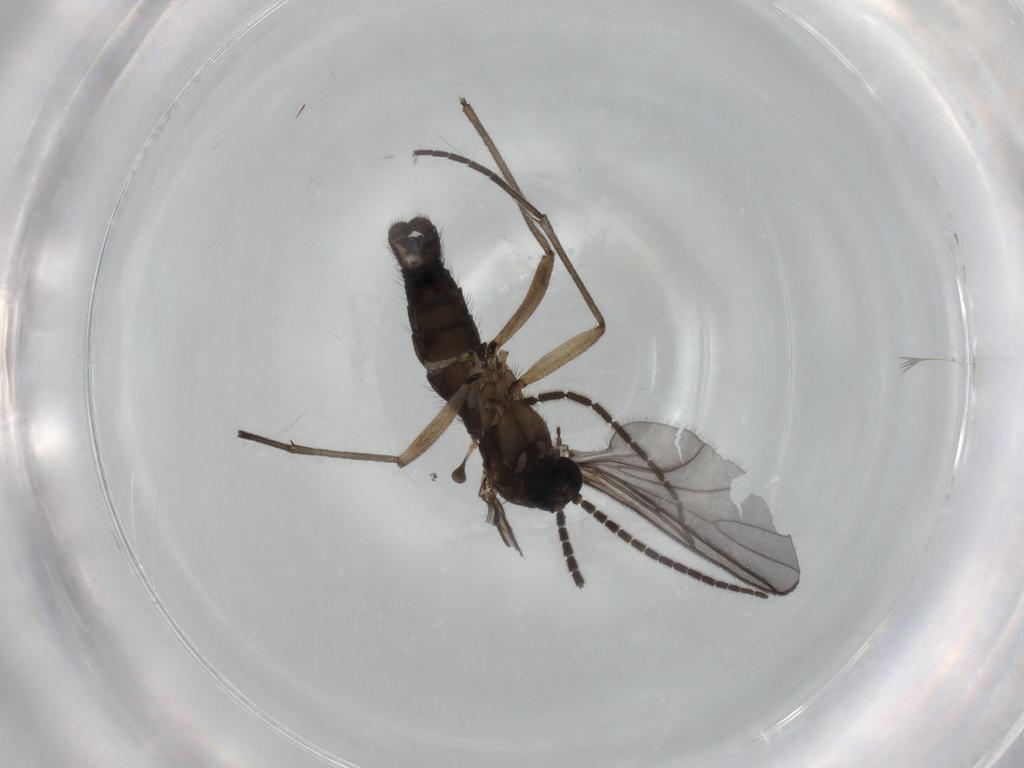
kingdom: Animalia
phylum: Arthropoda
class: Insecta
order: Diptera
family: Sciaridae
